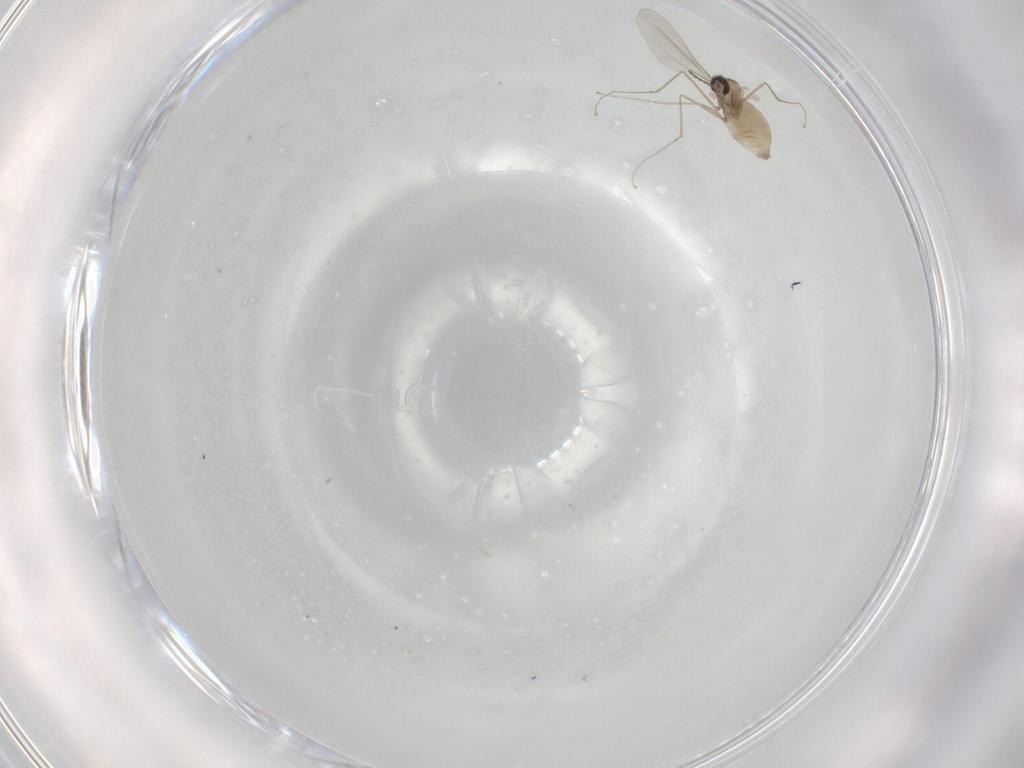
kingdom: Animalia
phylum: Arthropoda
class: Insecta
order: Diptera
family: Cecidomyiidae
